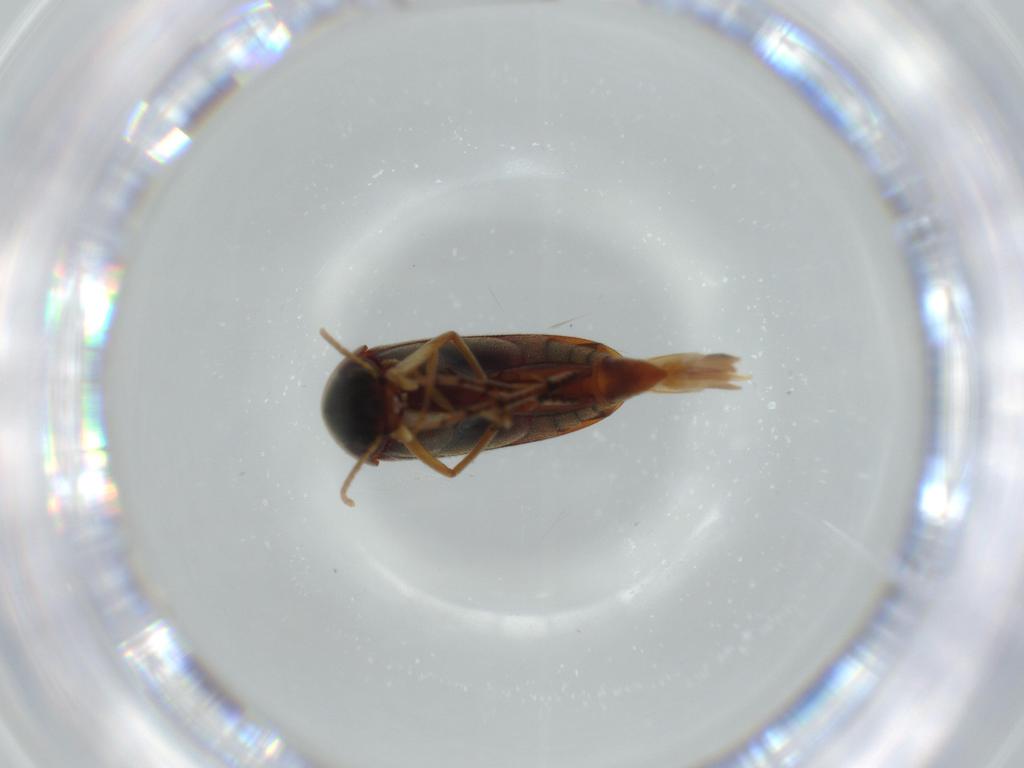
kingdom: Animalia
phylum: Arthropoda
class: Insecta
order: Coleoptera
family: Mordellidae
